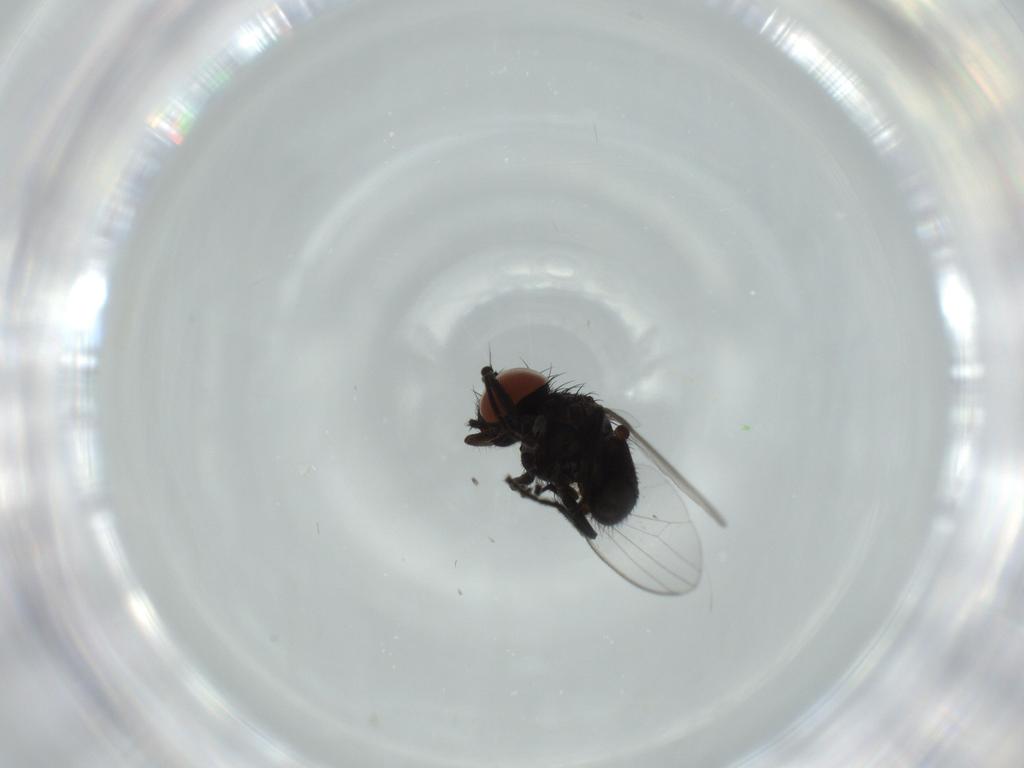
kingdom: Animalia
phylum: Arthropoda
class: Insecta
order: Diptera
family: Milichiidae
